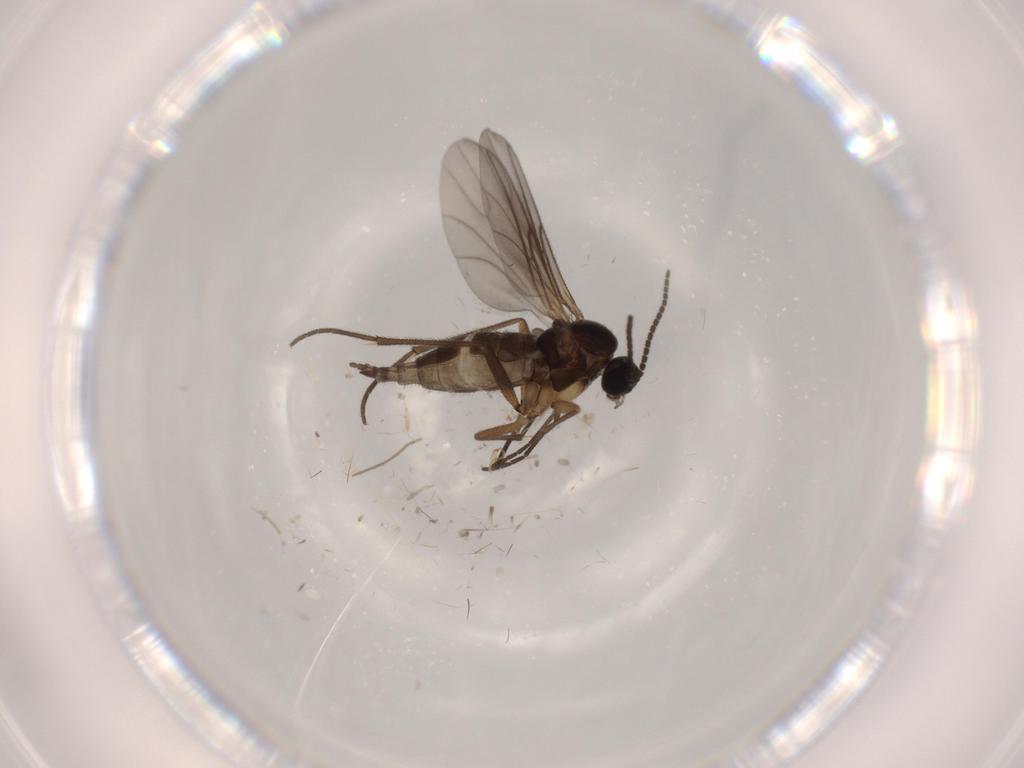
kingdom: Animalia
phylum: Arthropoda
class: Insecta
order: Diptera
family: Sciaridae
